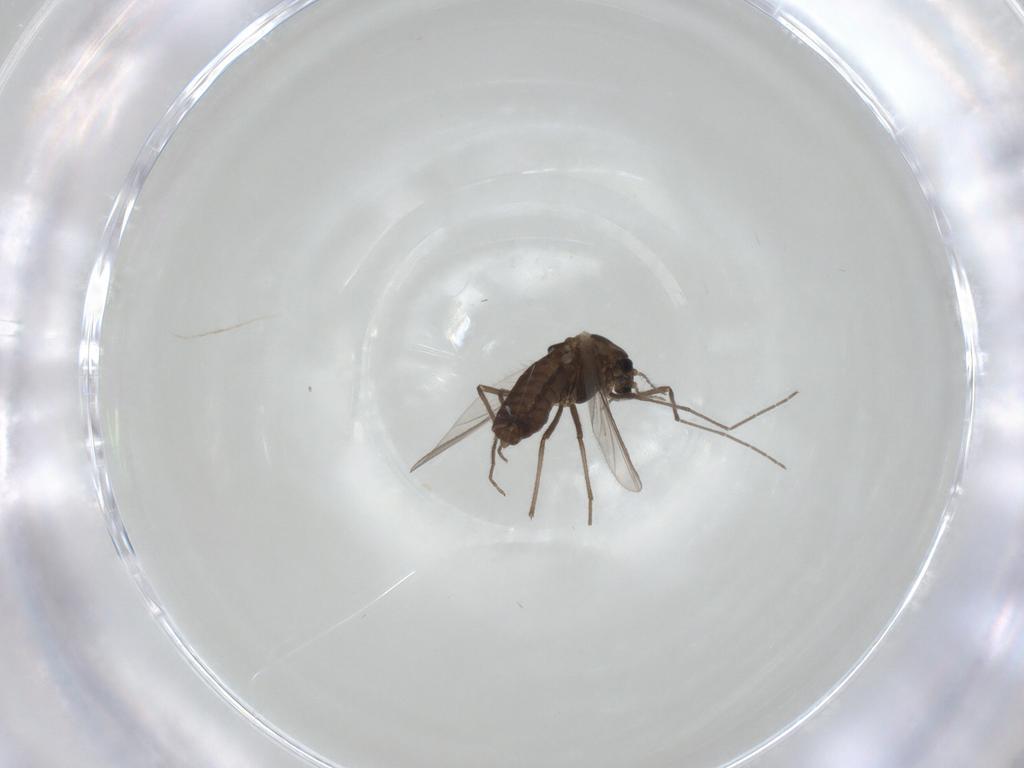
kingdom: Animalia
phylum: Arthropoda
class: Insecta
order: Diptera
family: Chironomidae
